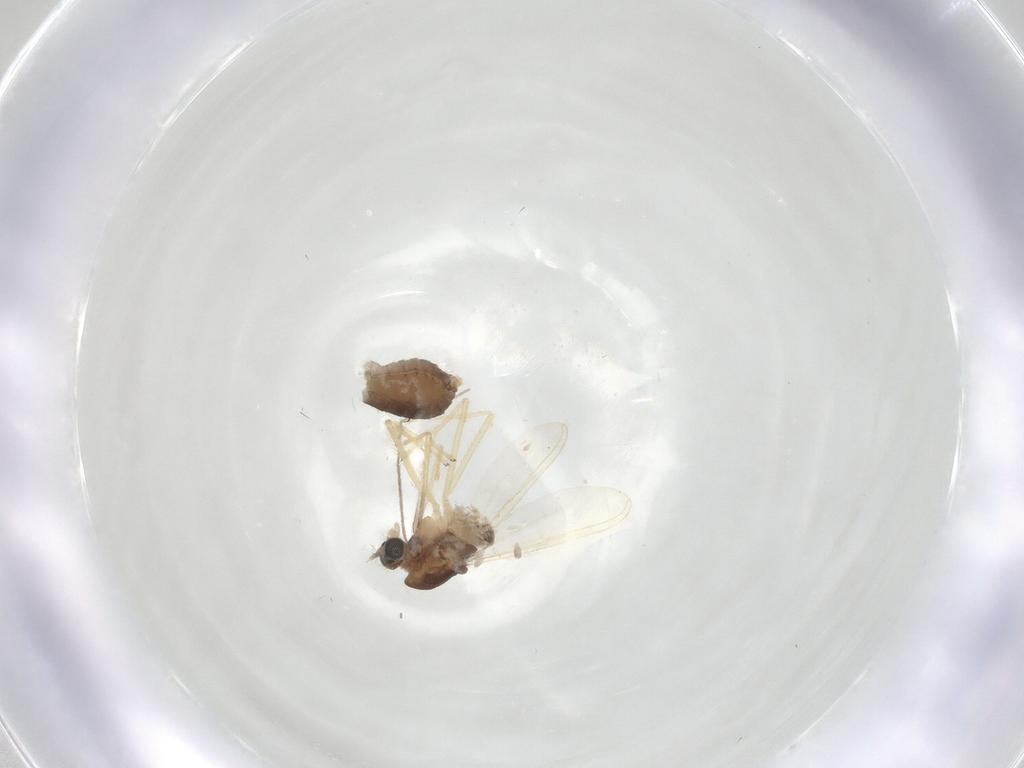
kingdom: Animalia
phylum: Arthropoda
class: Insecta
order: Diptera
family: Chironomidae
